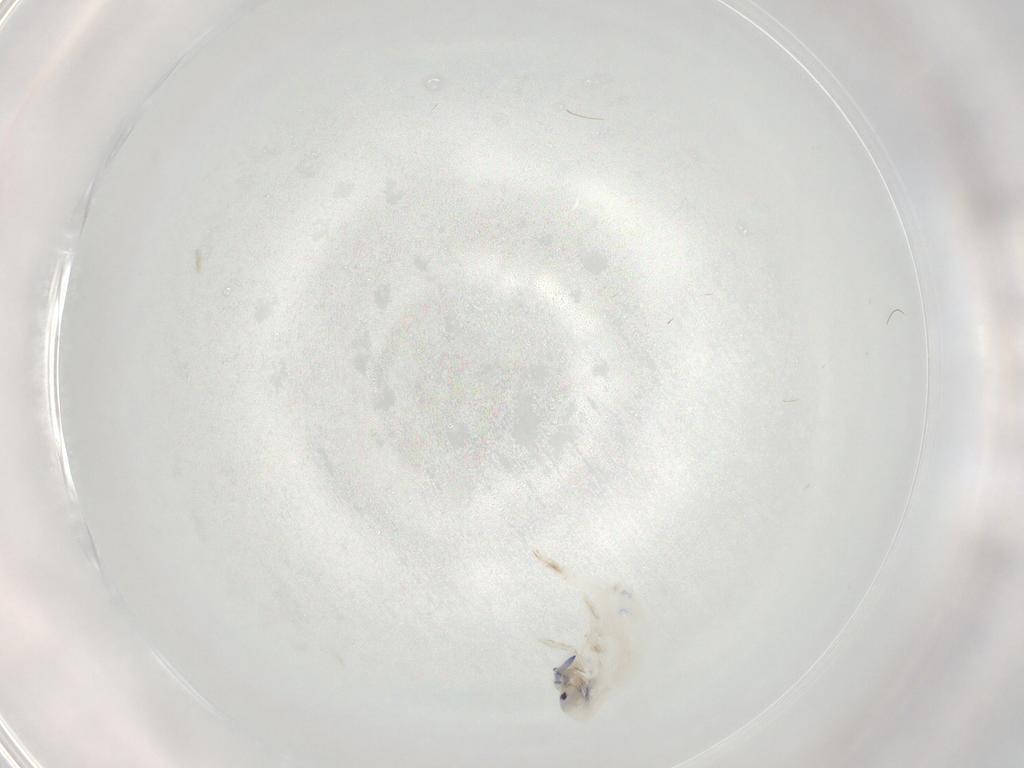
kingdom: Animalia
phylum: Arthropoda
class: Collembola
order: Entomobryomorpha
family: Entomobryidae
